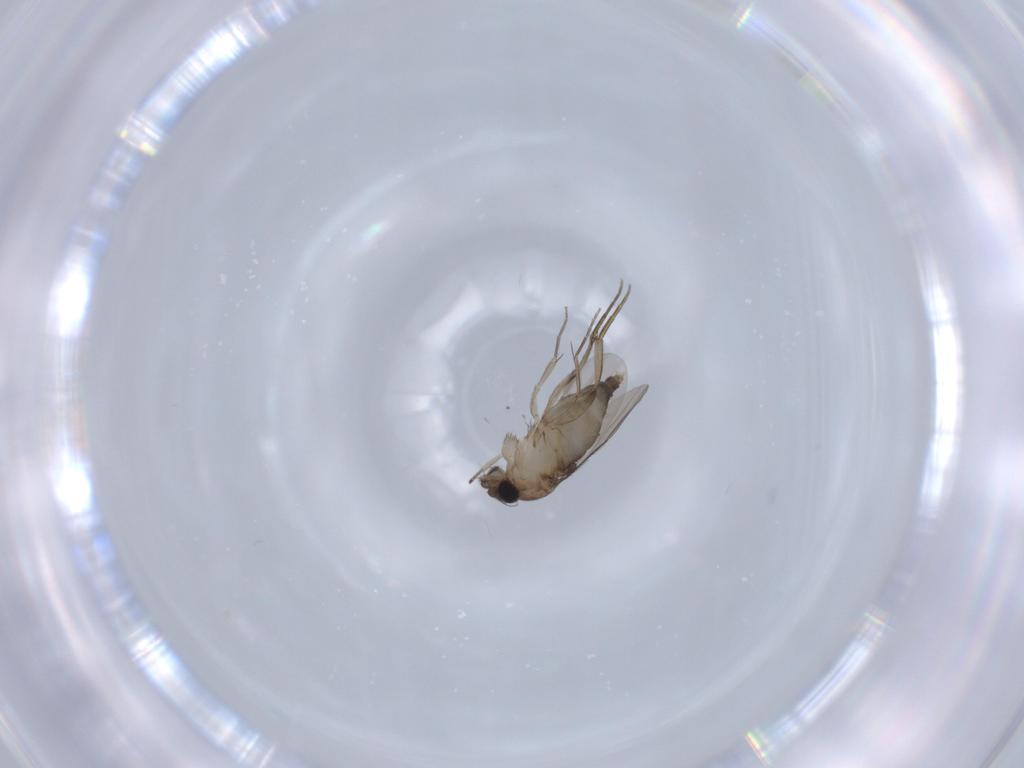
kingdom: Animalia
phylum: Arthropoda
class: Insecta
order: Diptera
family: Phoridae
